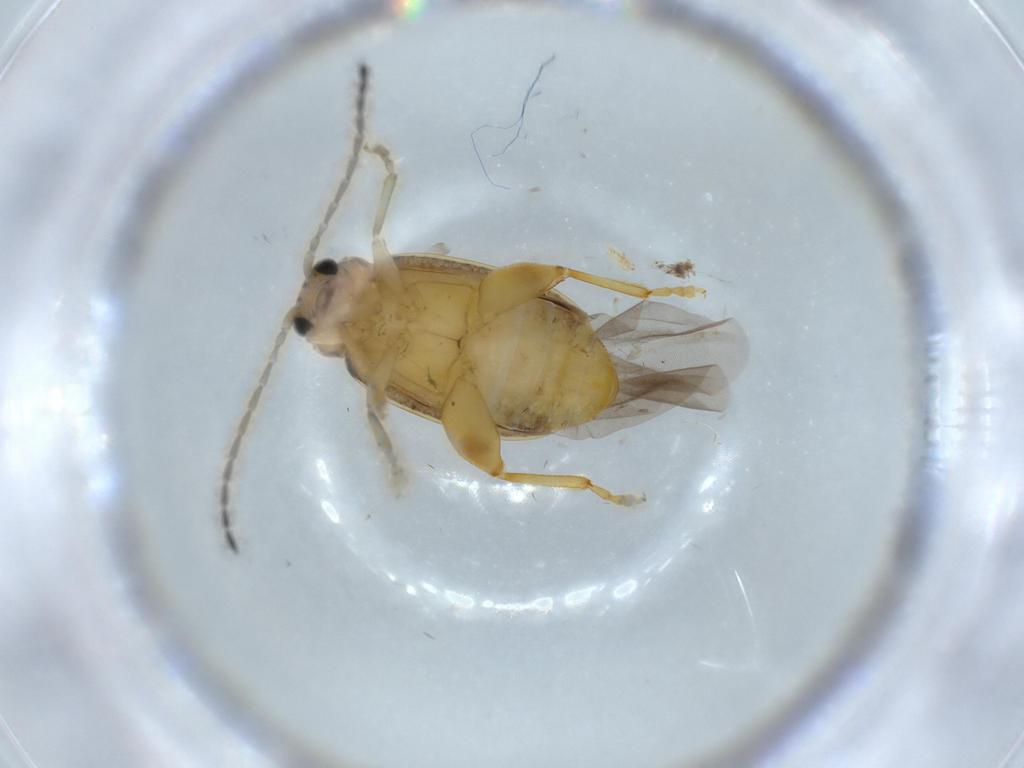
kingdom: Animalia
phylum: Arthropoda
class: Insecta
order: Coleoptera
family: Chrysomelidae
